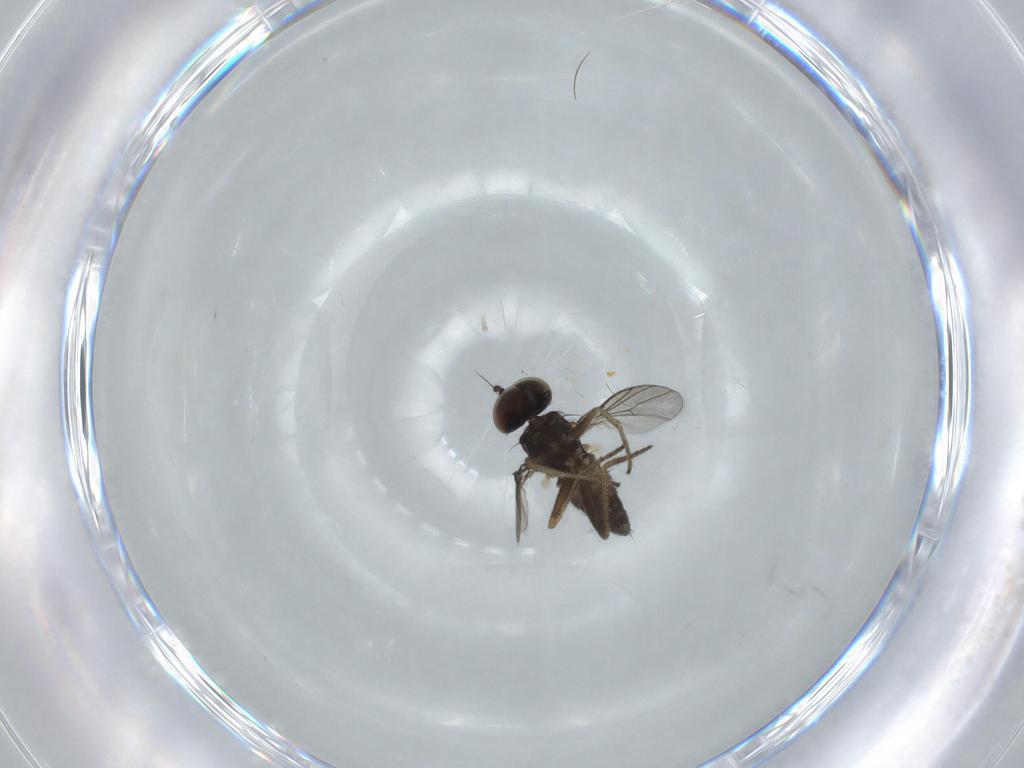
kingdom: Animalia
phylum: Arthropoda
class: Insecta
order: Diptera
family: Dolichopodidae
